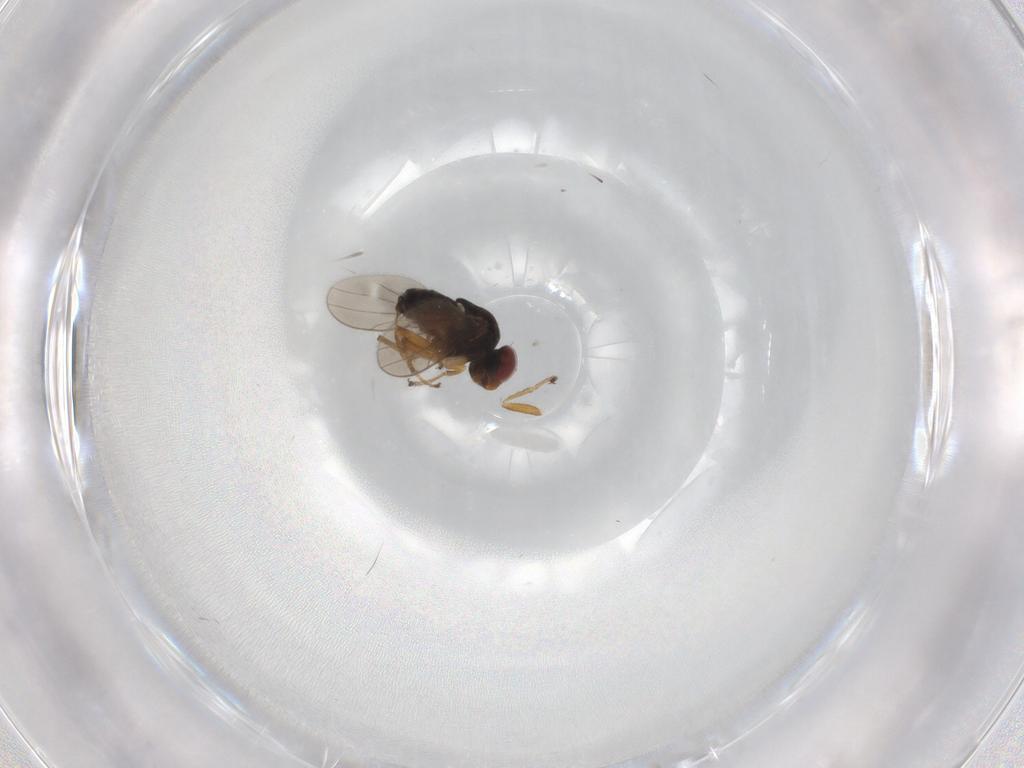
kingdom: Animalia
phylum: Arthropoda
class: Insecta
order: Diptera
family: Ephydridae
